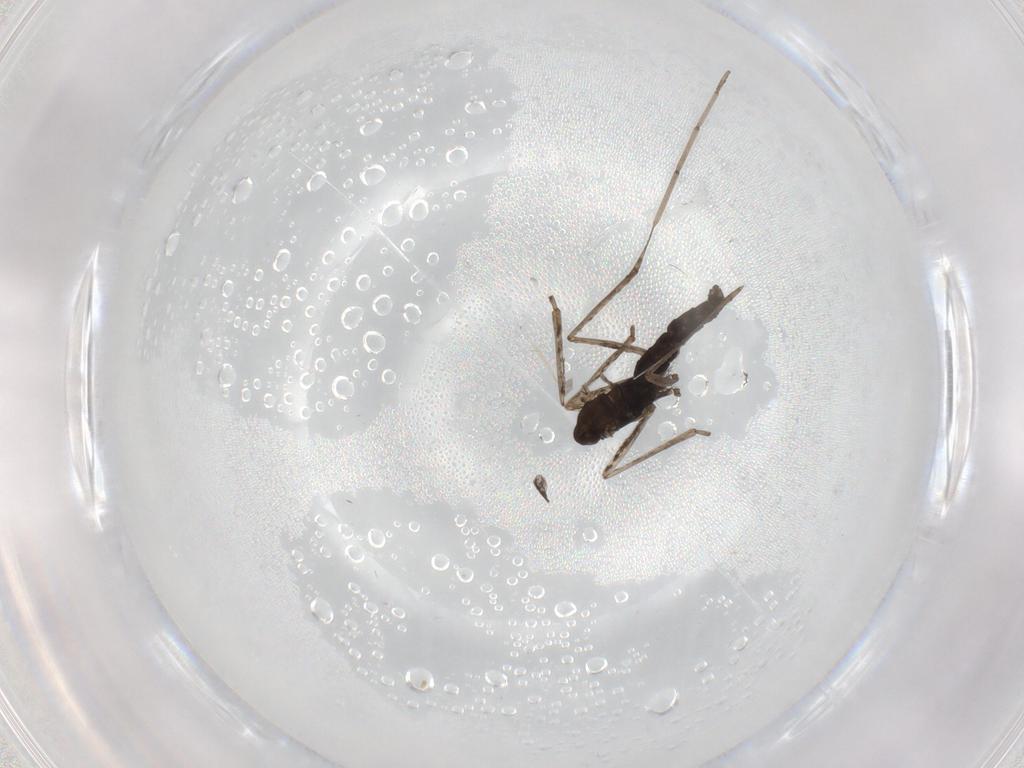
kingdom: Animalia
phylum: Arthropoda
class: Insecta
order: Diptera
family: Cecidomyiidae
